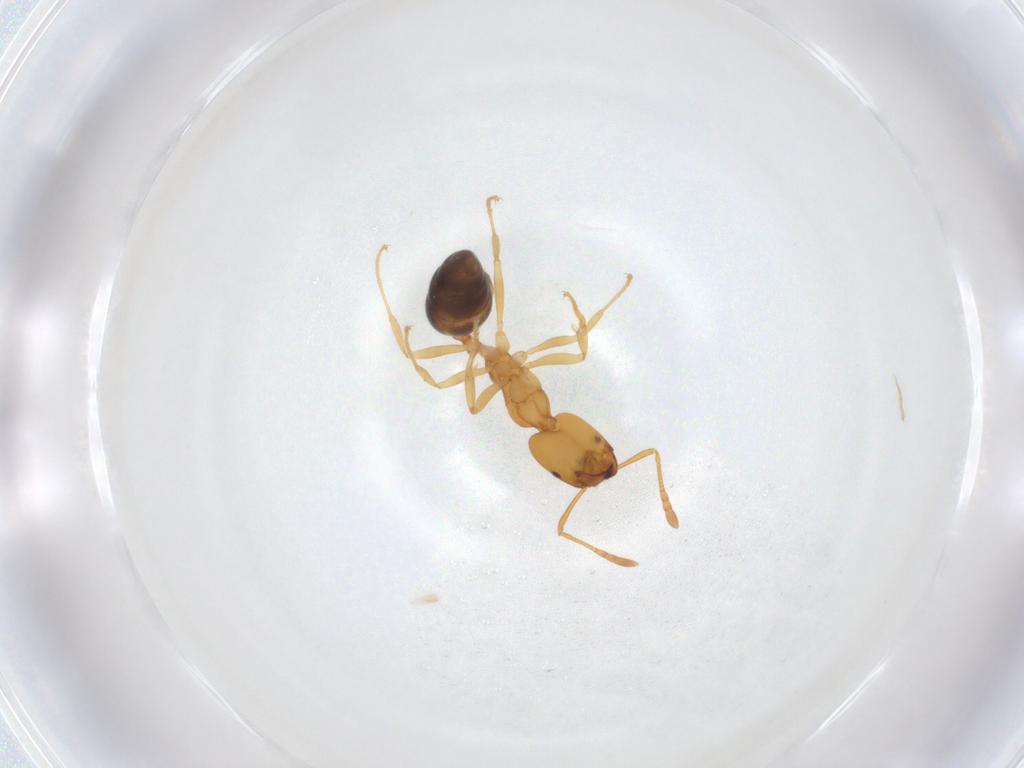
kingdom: Animalia
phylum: Arthropoda
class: Insecta
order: Hymenoptera
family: Formicidae
